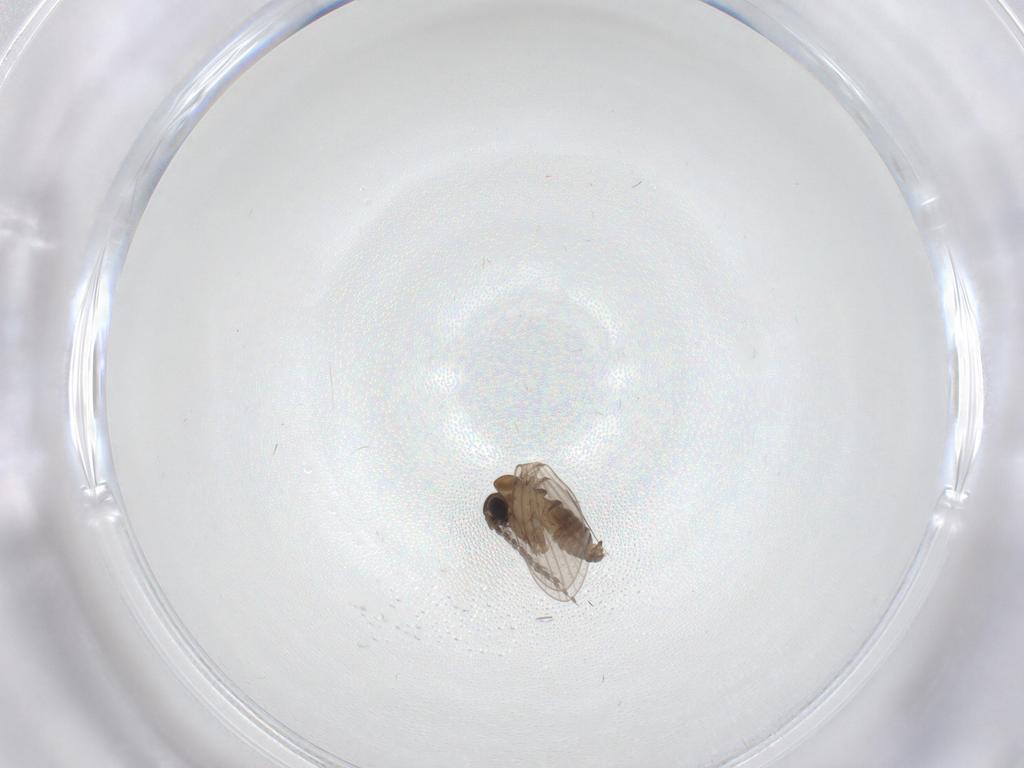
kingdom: Animalia
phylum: Arthropoda
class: Insecta
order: Diptera
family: Psychodidae
